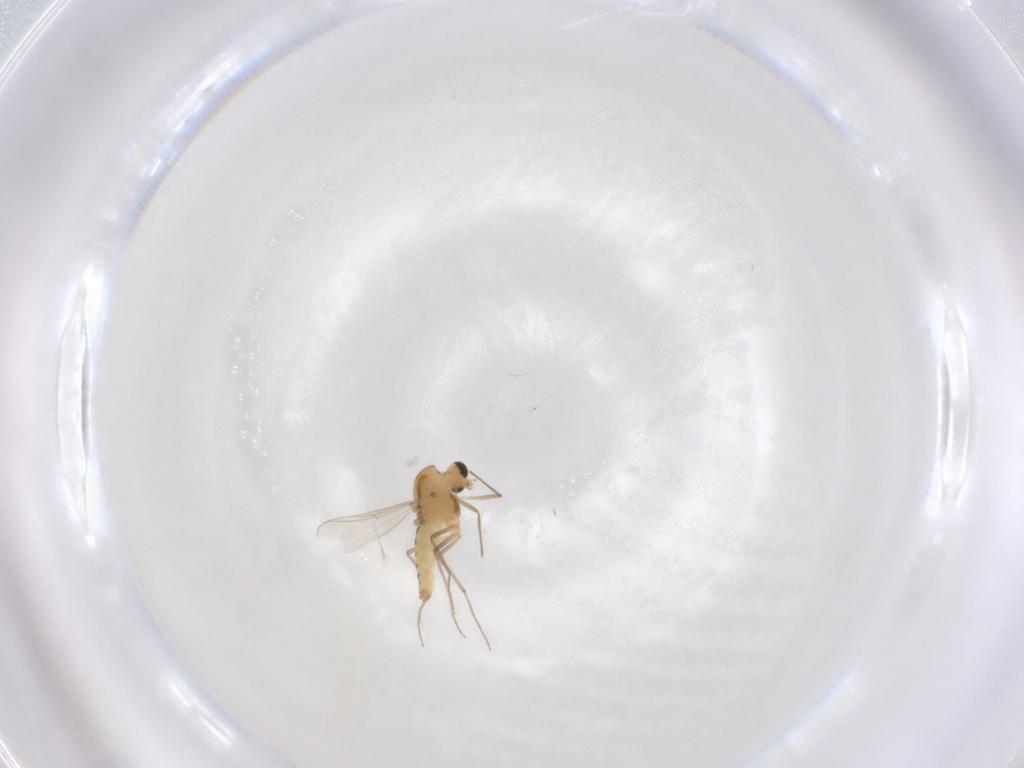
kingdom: Animalia
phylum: Arthropoda
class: Insecta
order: Diptera
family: Chironomidae
